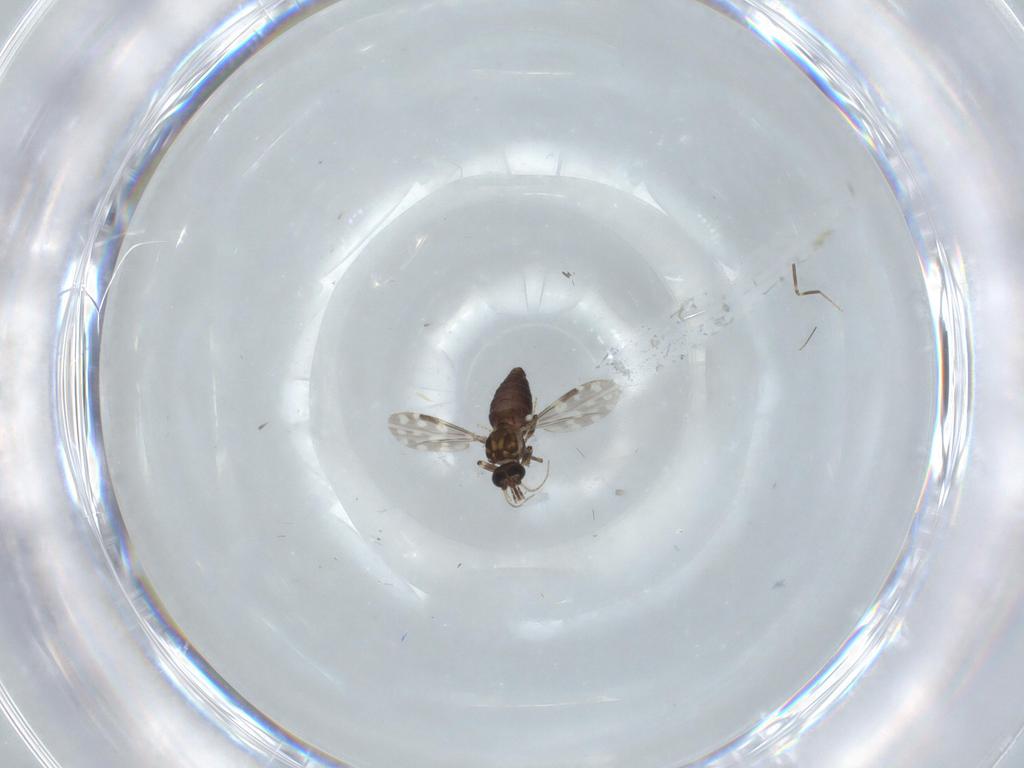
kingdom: Animalia
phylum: Arthropoda
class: Insecta
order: Diptera
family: Ceratopogonidae
